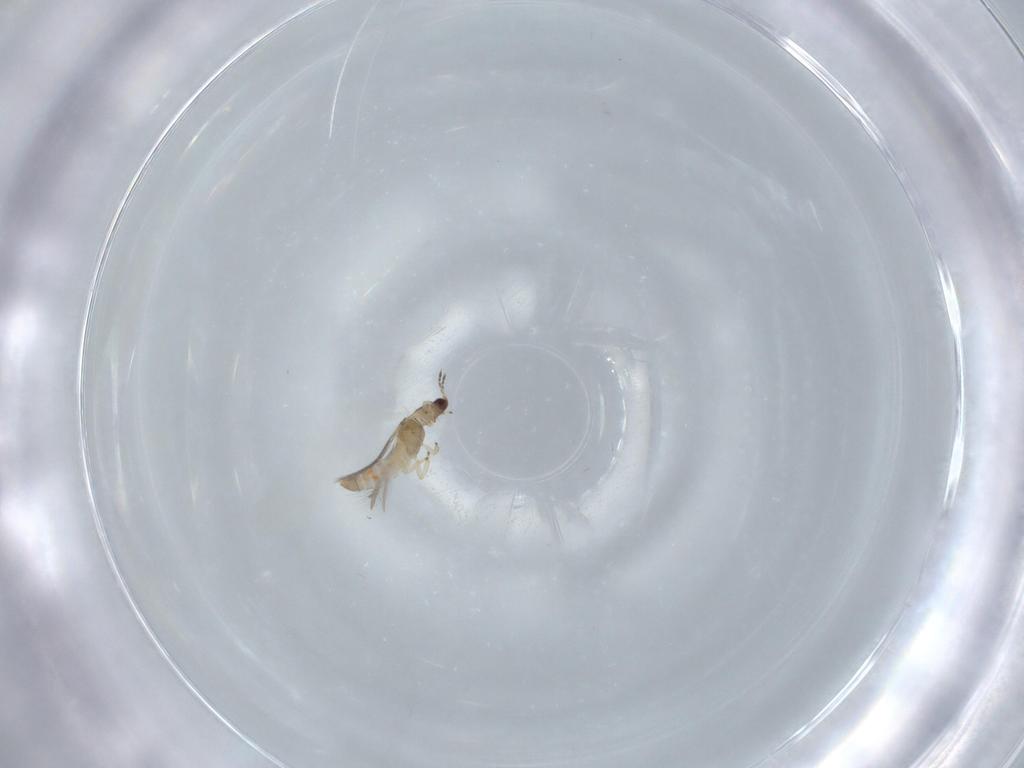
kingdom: Animalia
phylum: Arthropoda
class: Insecta
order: Thysanoptera
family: Thripidae
